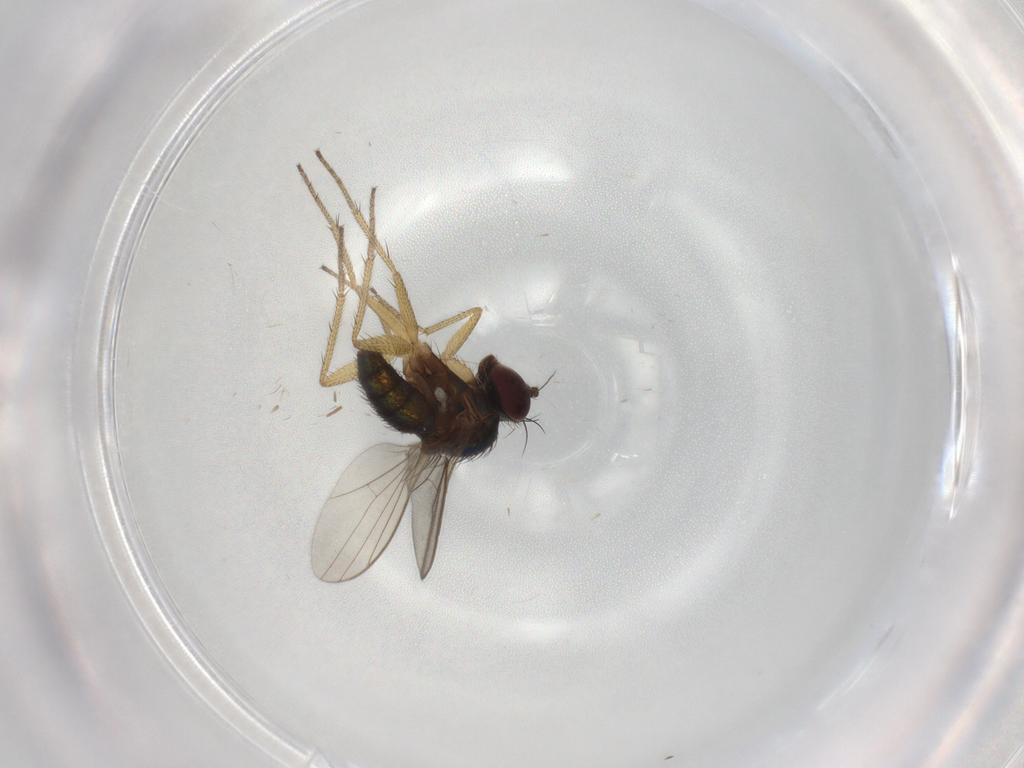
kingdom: Animalia
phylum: Arthropoda
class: Insecta
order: Diptera
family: Dolichopodidae
